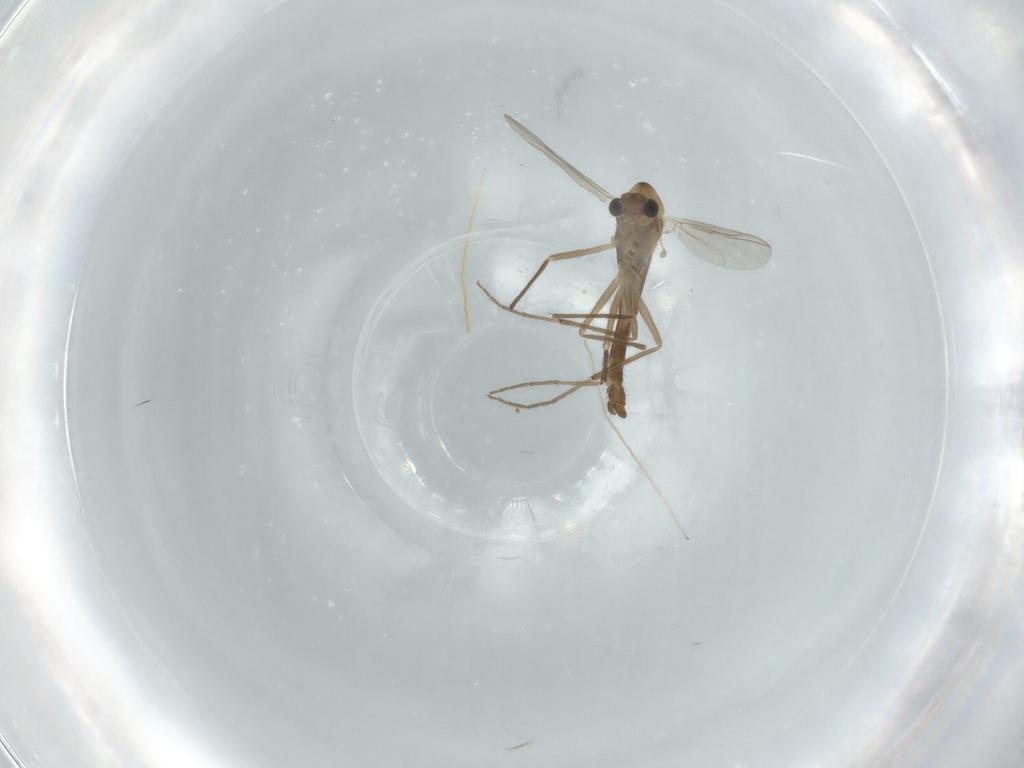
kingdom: Animalia
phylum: Arthropoda
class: Insecta
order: Diptera
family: Chironomidae
